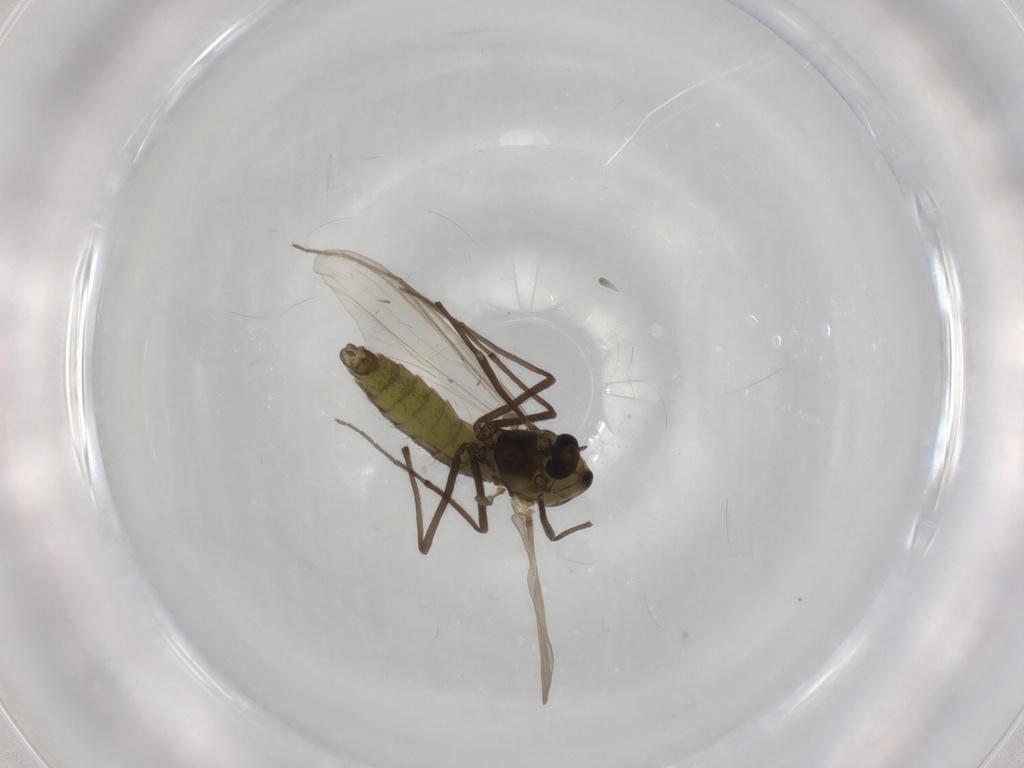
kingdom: Animalia
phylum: Arthropoda
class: Insecta
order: Diptera
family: Chironomidae
